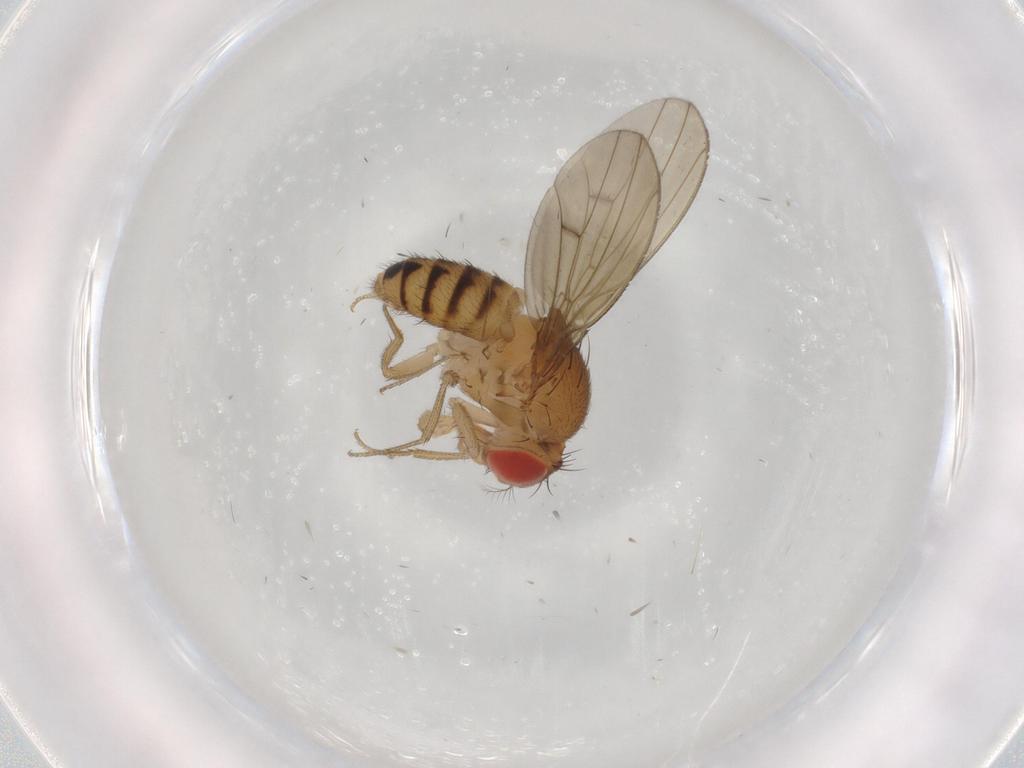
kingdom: Animalia
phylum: Arthropoda
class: Insecta
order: Diptera
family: Drosophilidae
